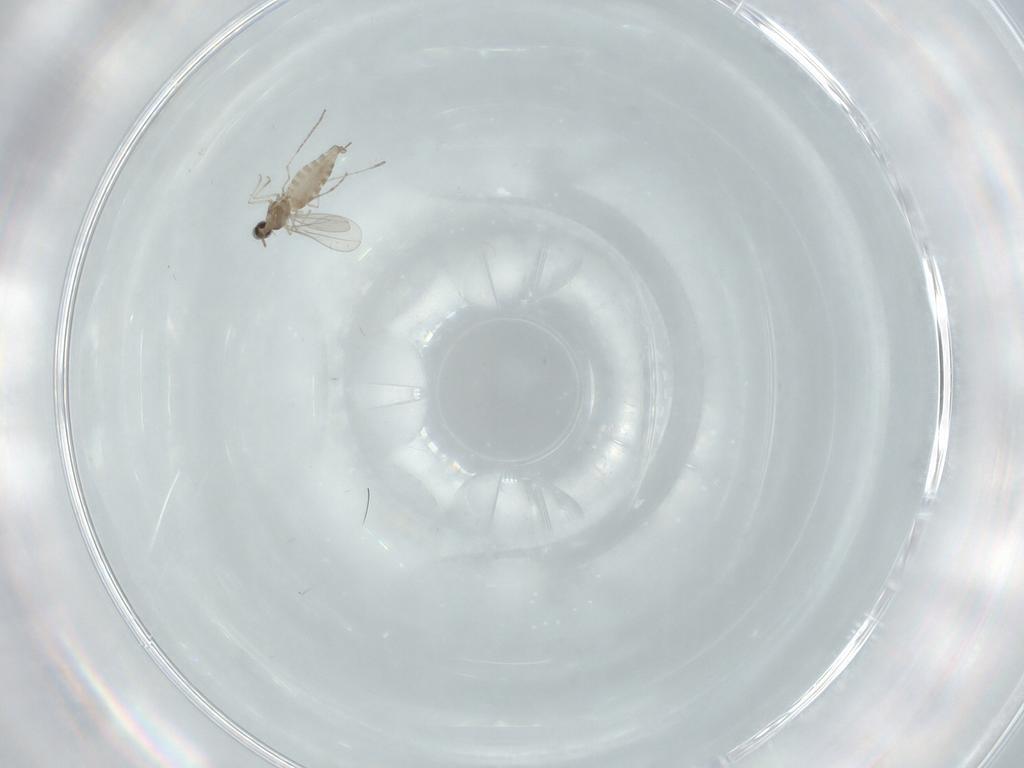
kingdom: Animalia
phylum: Arthropoda
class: Insecta
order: Diptera
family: Cecidomyiidae
